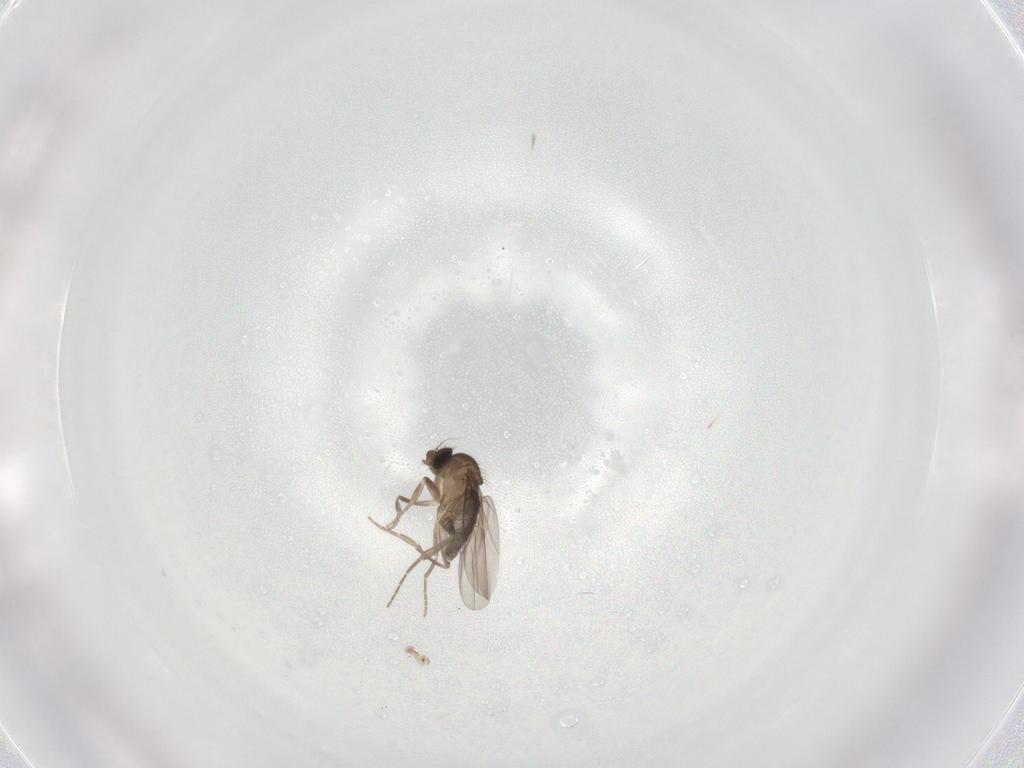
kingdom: Animalia
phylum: Arthropoda
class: Insecta
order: Diptera
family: Phoridae
